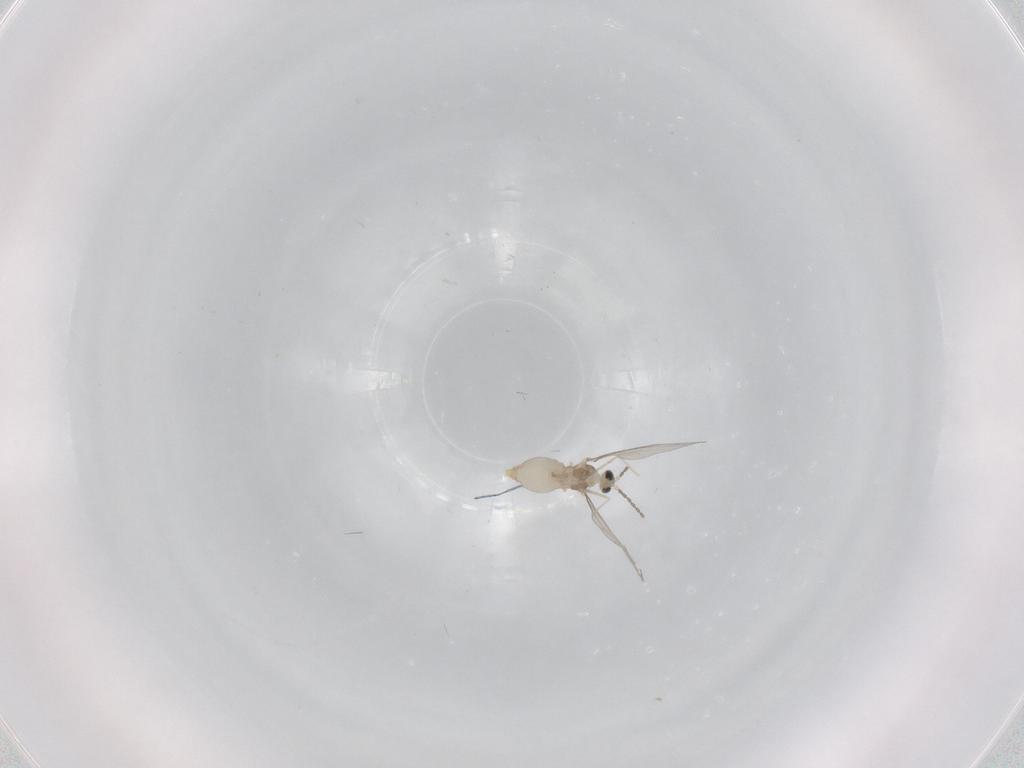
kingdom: Animalia
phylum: Arthropoda
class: Insecta
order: Diptera
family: Cecidomyiidae
